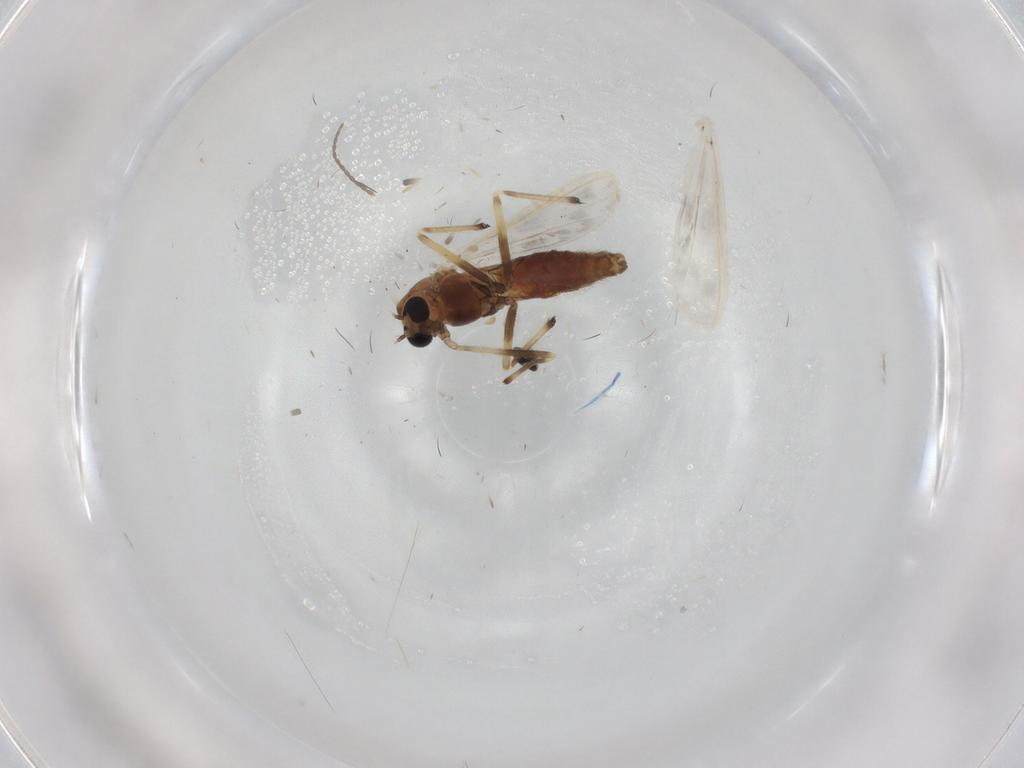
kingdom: Animalia
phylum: Arthropoda
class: Insecta
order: Diptera
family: Chironomidae
